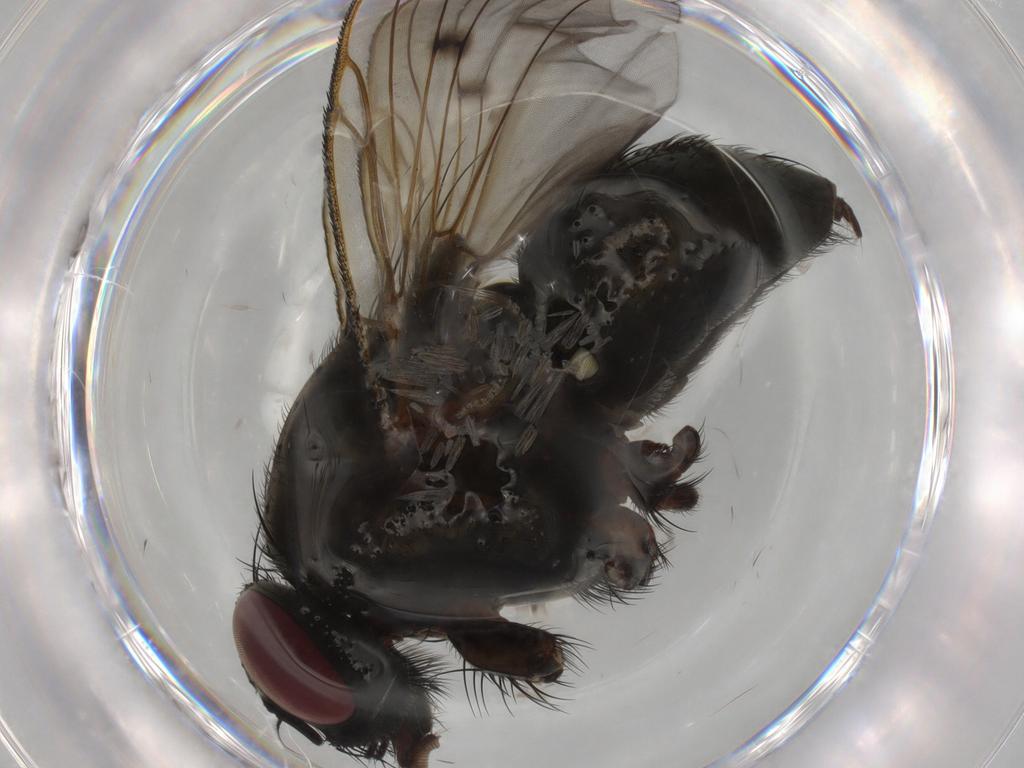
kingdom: Animalia
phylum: Arthropoda
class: Insecta
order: Diptera
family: Muscidae
